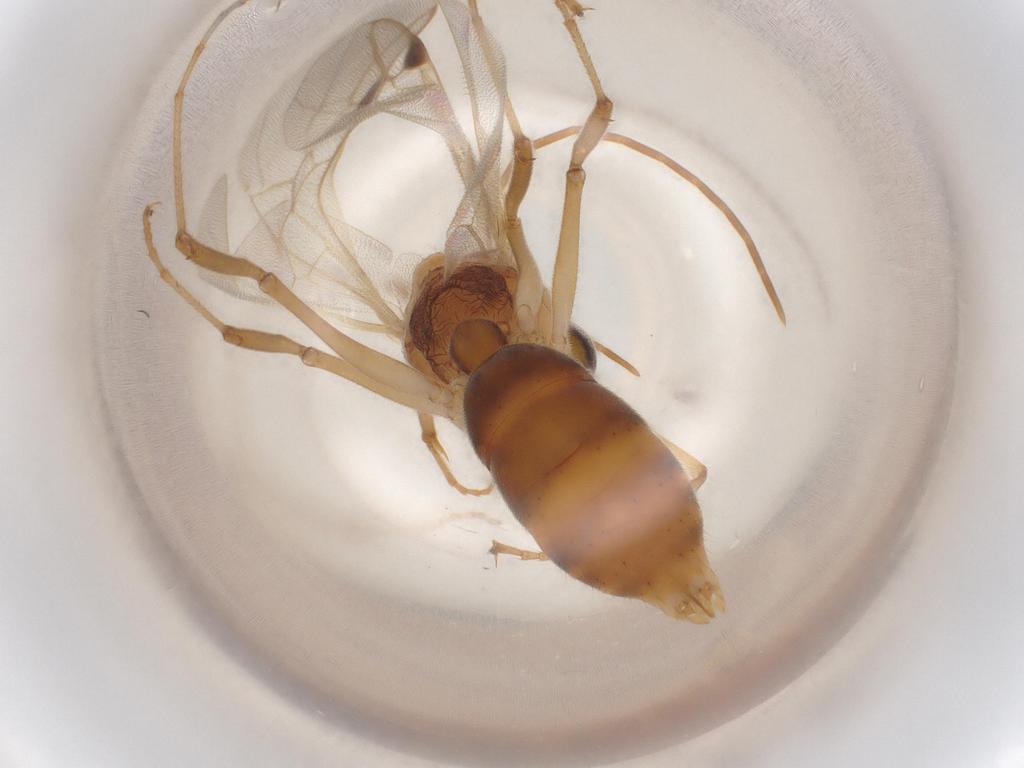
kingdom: Animalia
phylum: Arthropoda
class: Insecta
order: Hymenoptera
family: Formicidae
